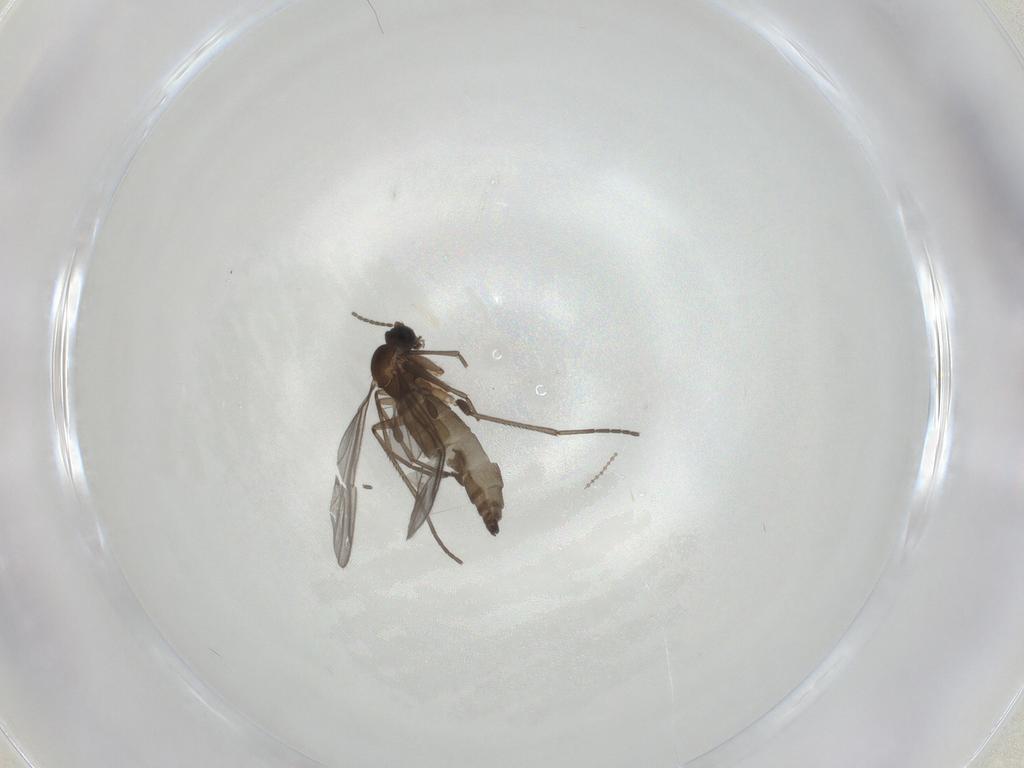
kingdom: Animalia
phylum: Arthropoda
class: Insecta
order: Diptera
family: Cecidomyiidae
